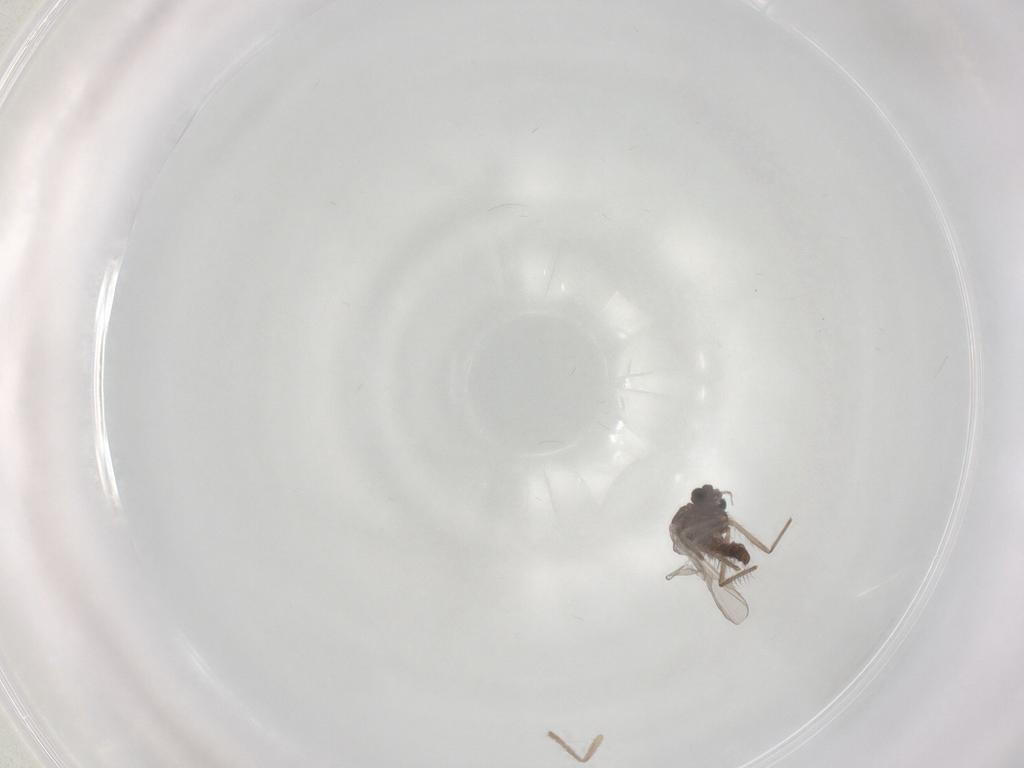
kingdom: Animalia
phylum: Arthropoda
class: Insecta
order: Diptera
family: Chironomidae
